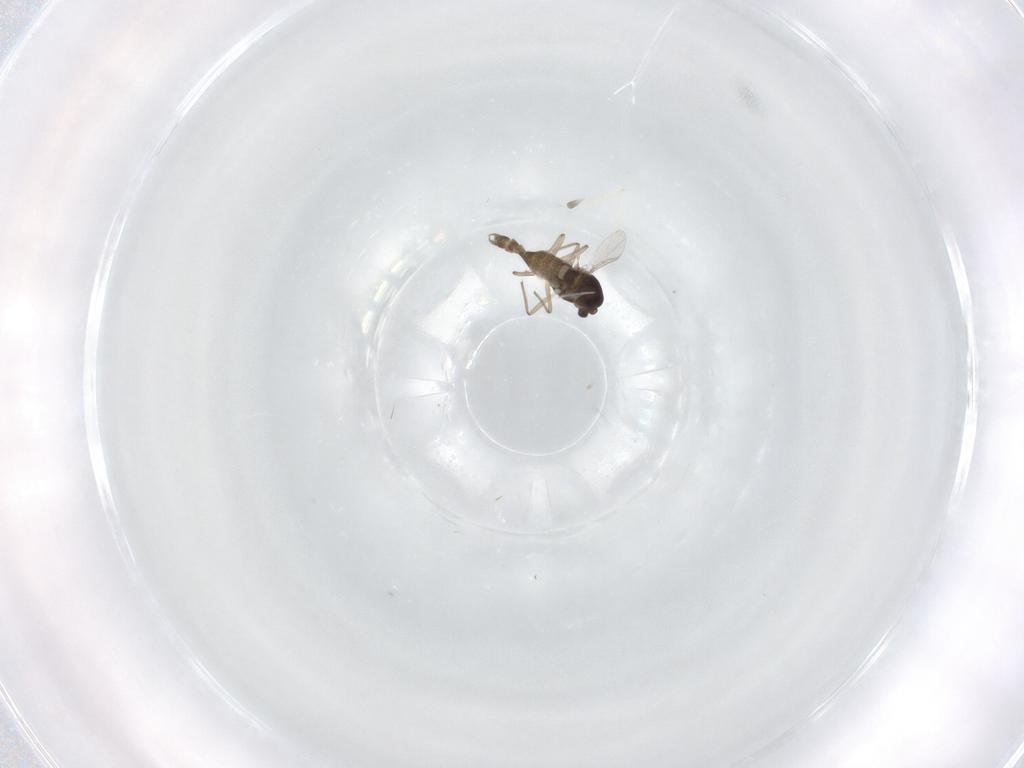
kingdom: Animalia
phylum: Arthropoda
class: Insecta
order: Diptera
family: Chironomidae
